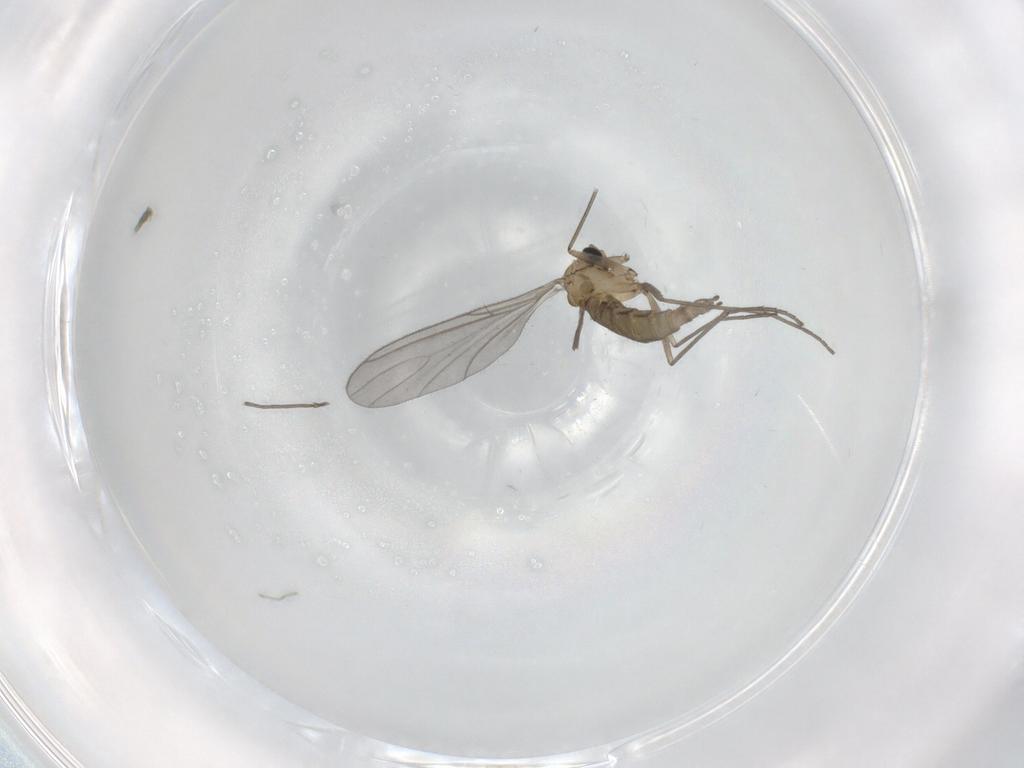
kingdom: Animalia
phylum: Arthropoda
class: Insecta
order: Diptera
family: Sciaridae
